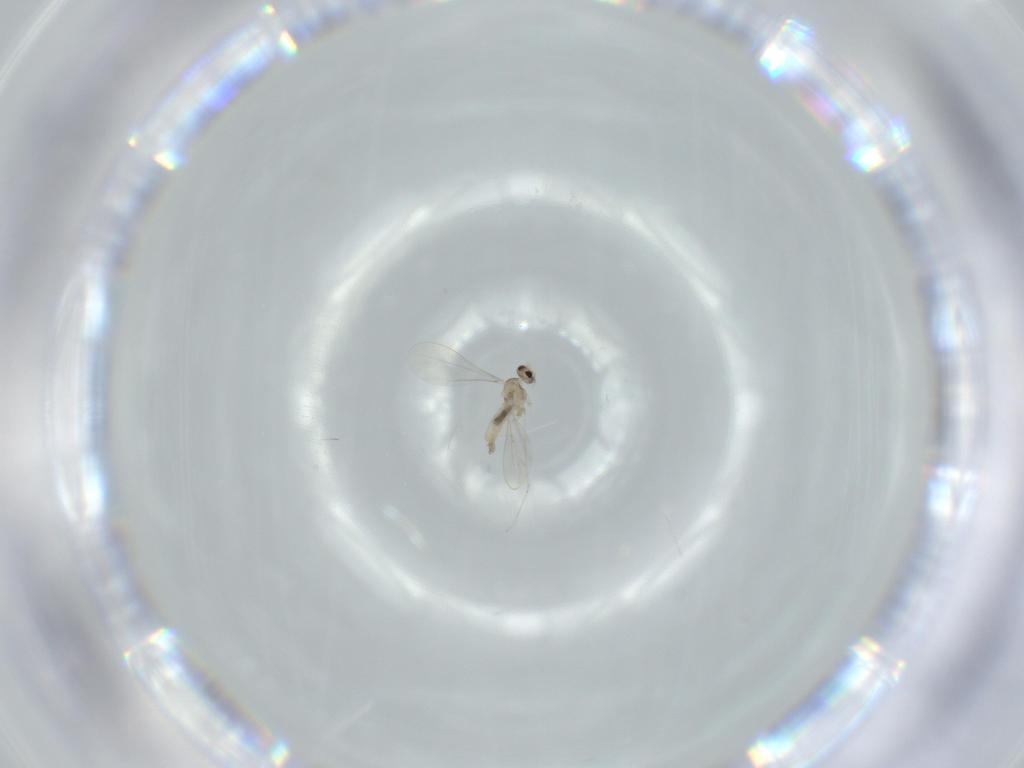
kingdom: Animalia
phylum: Arthropoda
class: Insecta
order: Diptera
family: Cecidomyiidae
